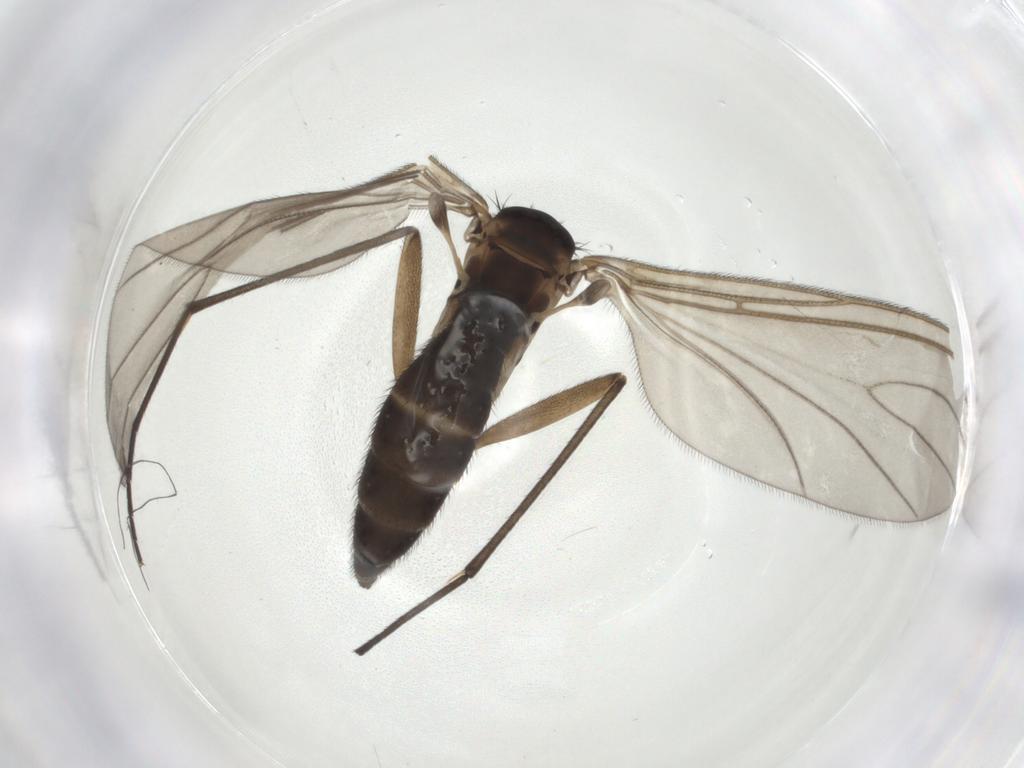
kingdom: Animalia
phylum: Arthropoda
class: Insecta
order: Diptera
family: Sciaridae
